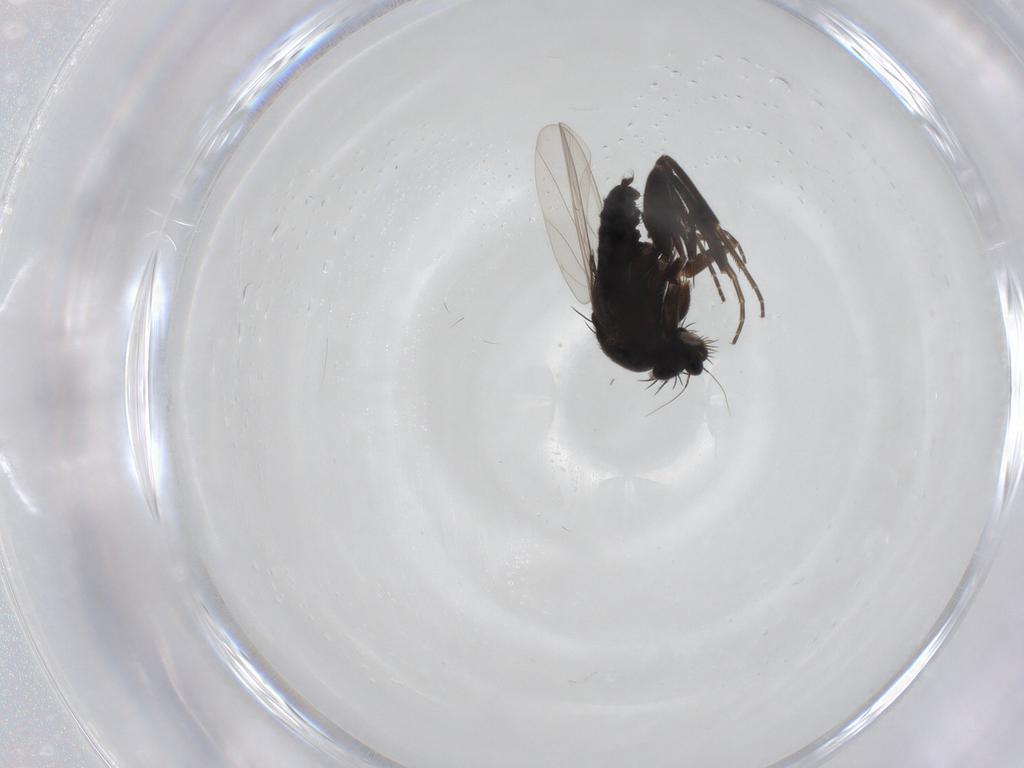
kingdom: Animalia
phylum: Arthropoda
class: Insecta
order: Diptera
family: Phoridae
